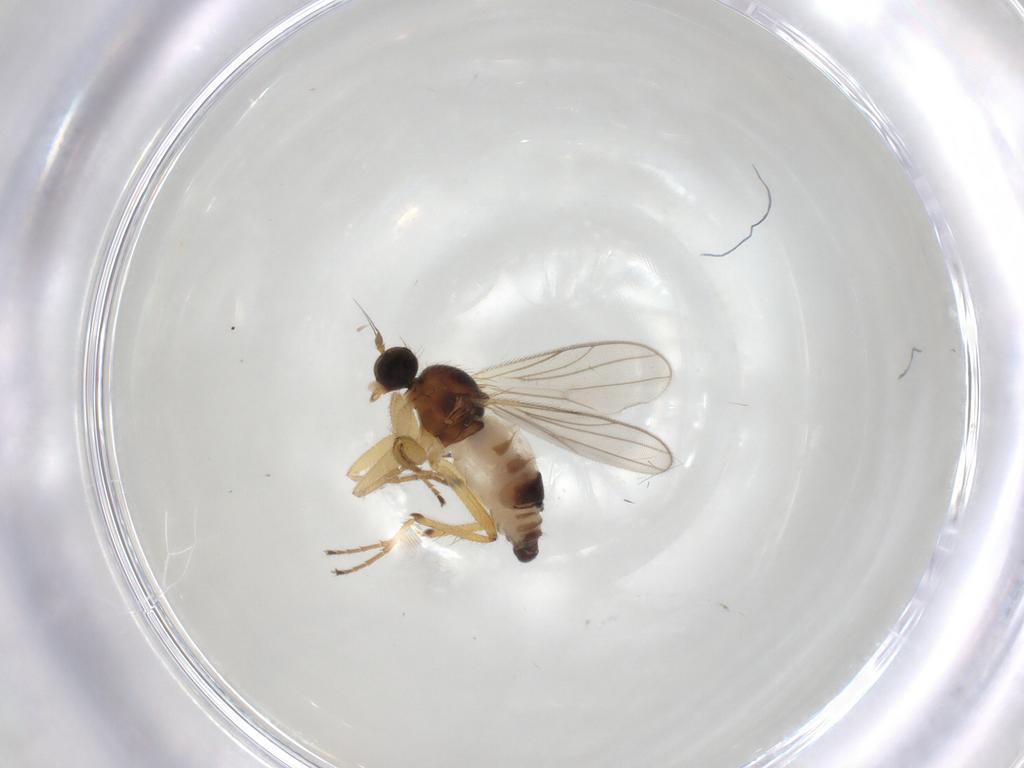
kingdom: Animalia
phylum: Arthropoda
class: Insecta
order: Diptera
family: Hybotidae
